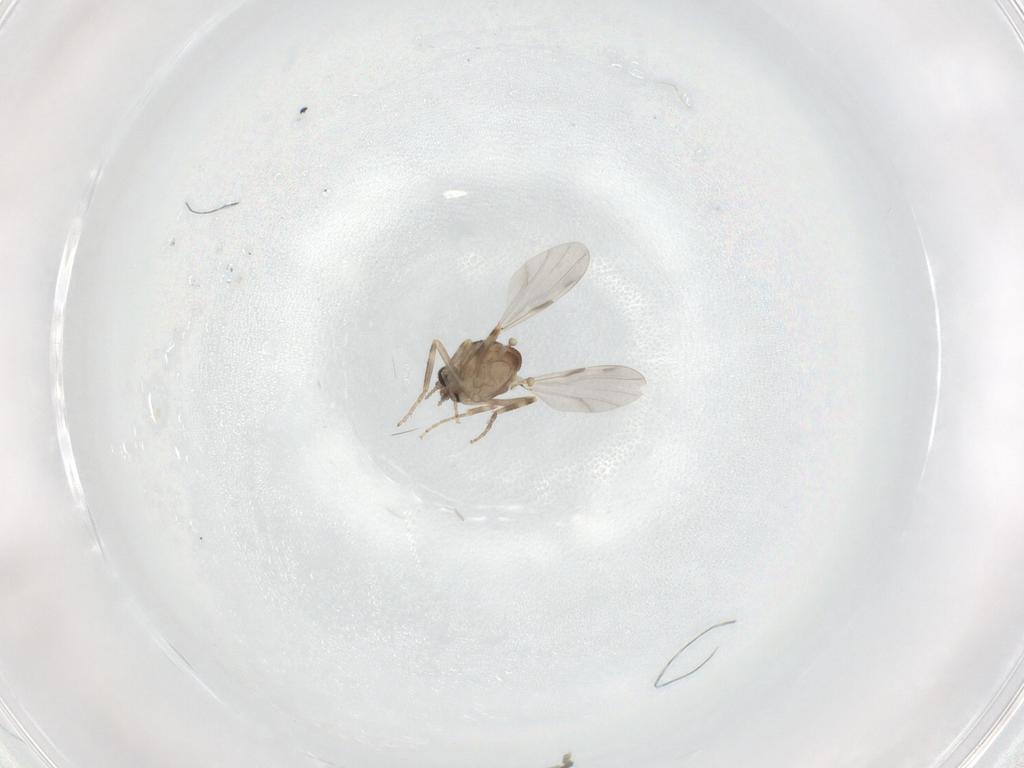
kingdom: Animalia
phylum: Arthropoda
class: Insecta
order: Diptera
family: Ceratopogonidae
